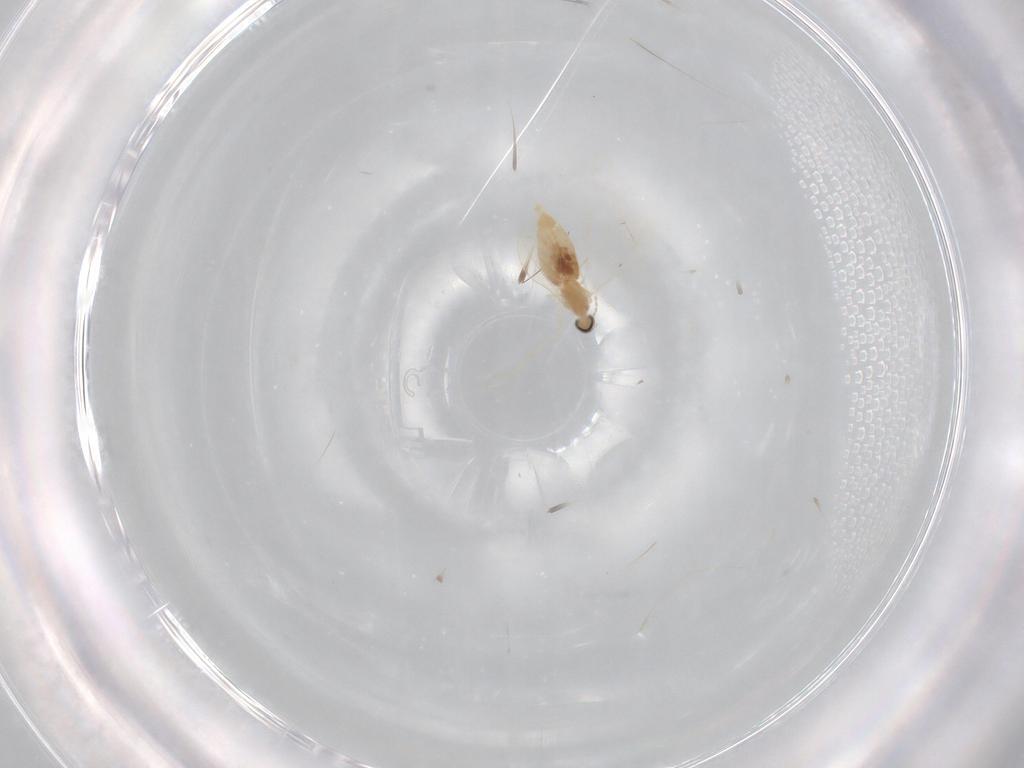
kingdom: Animalia
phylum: Arthropoda
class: Insecta
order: Diptera
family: Cecidomyiidae
